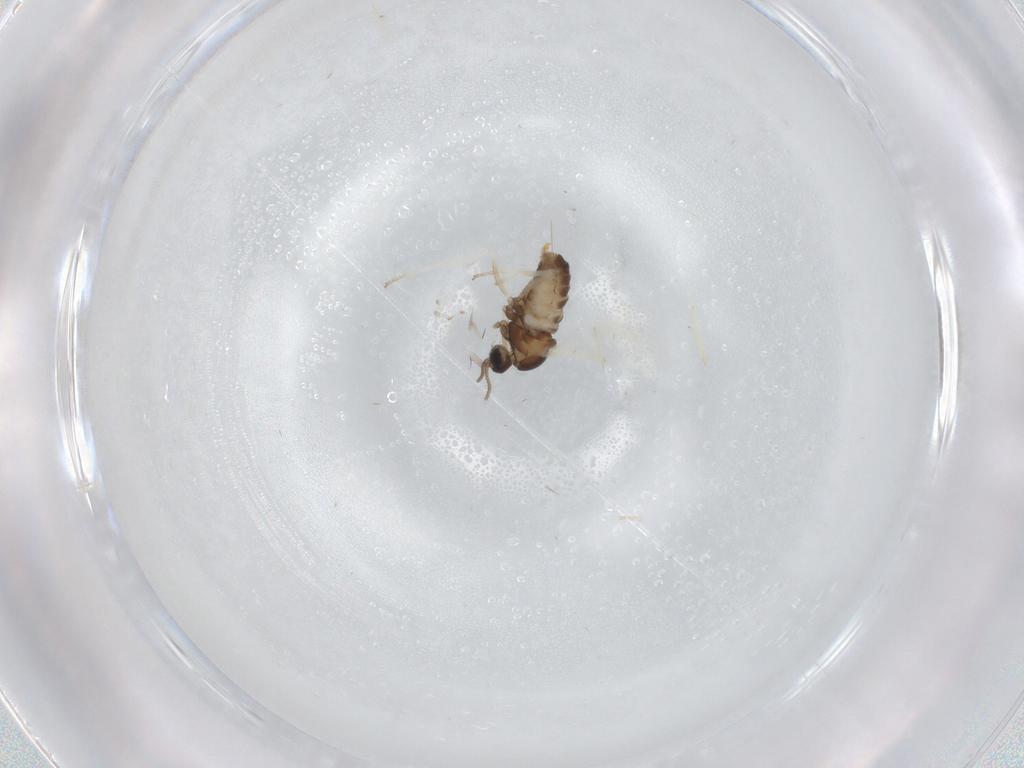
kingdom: Animalia
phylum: Arthropoda
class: Insecta
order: Diptera
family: Cecidomyiidae
